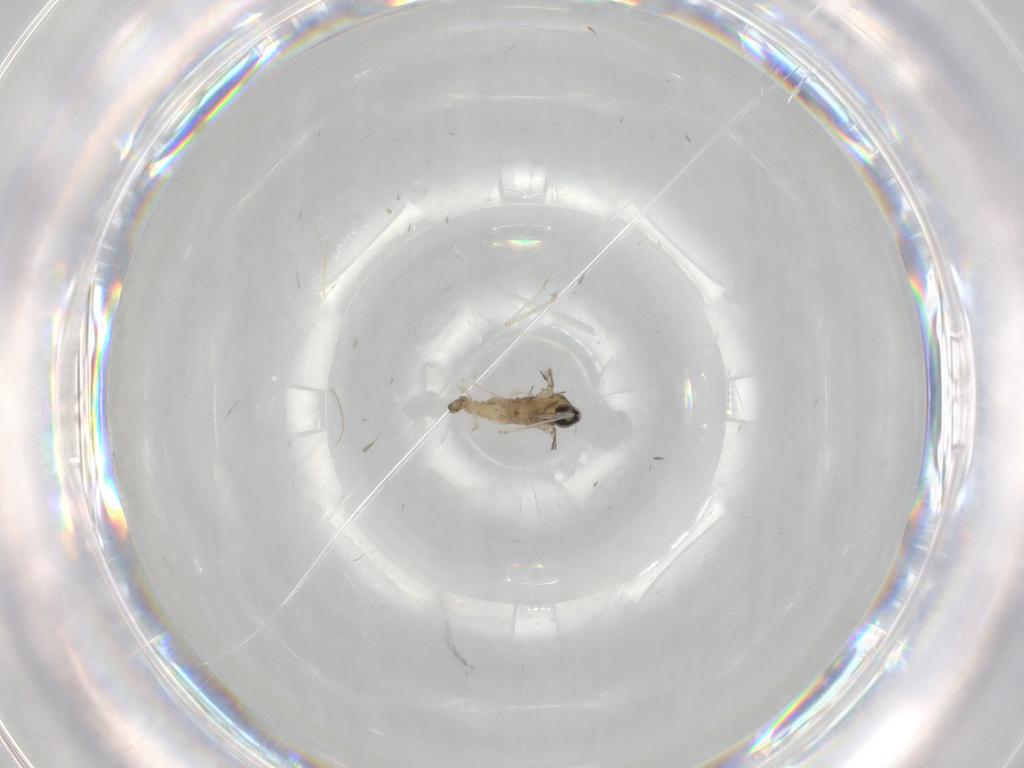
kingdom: Animalia
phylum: Arthropoda
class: Insecta
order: Diptera
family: Cecidomyiidae
